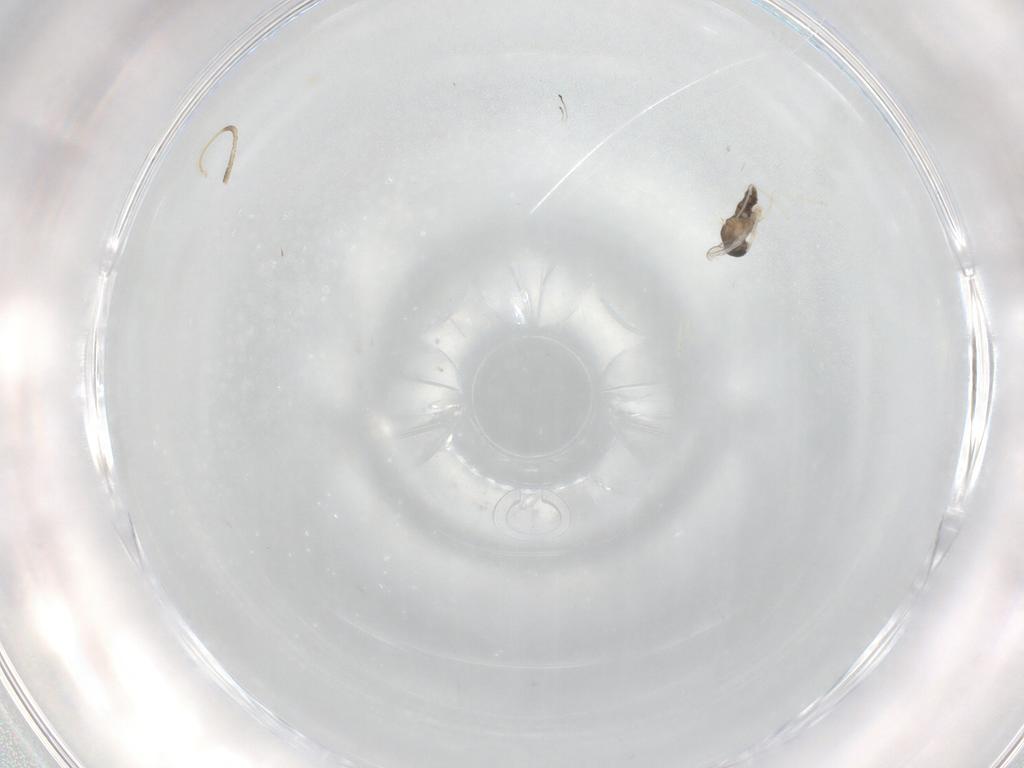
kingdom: Animalia
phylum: Arthropoda
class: Insecta
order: Diptera
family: Cecidomyiidae
